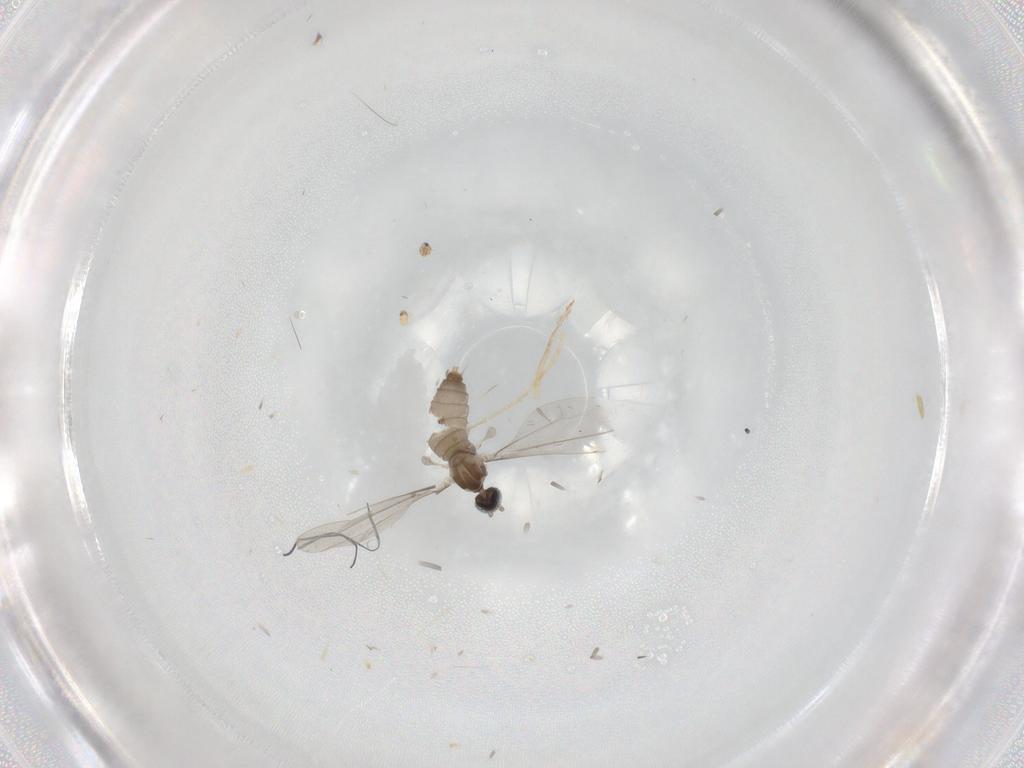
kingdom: Animalia
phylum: Arthropoda
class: Insecta
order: Diptera
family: Cecidomyiidae
